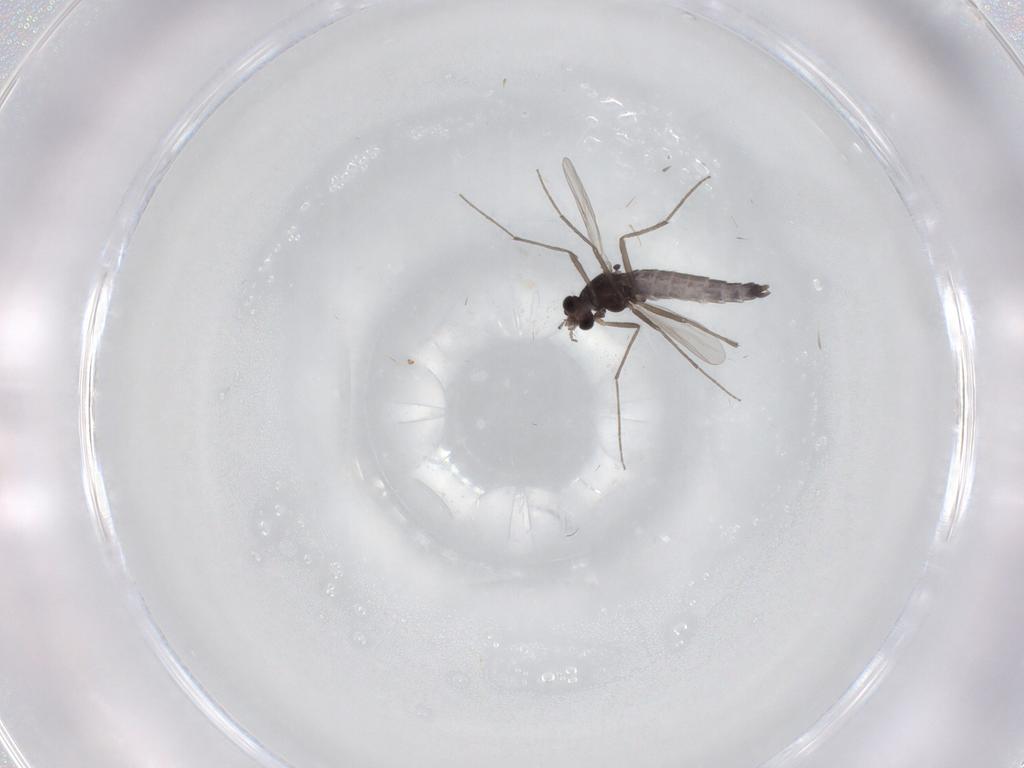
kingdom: Animalia
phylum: Arthropoda
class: Insecta
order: Diptera
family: Chironomidae
